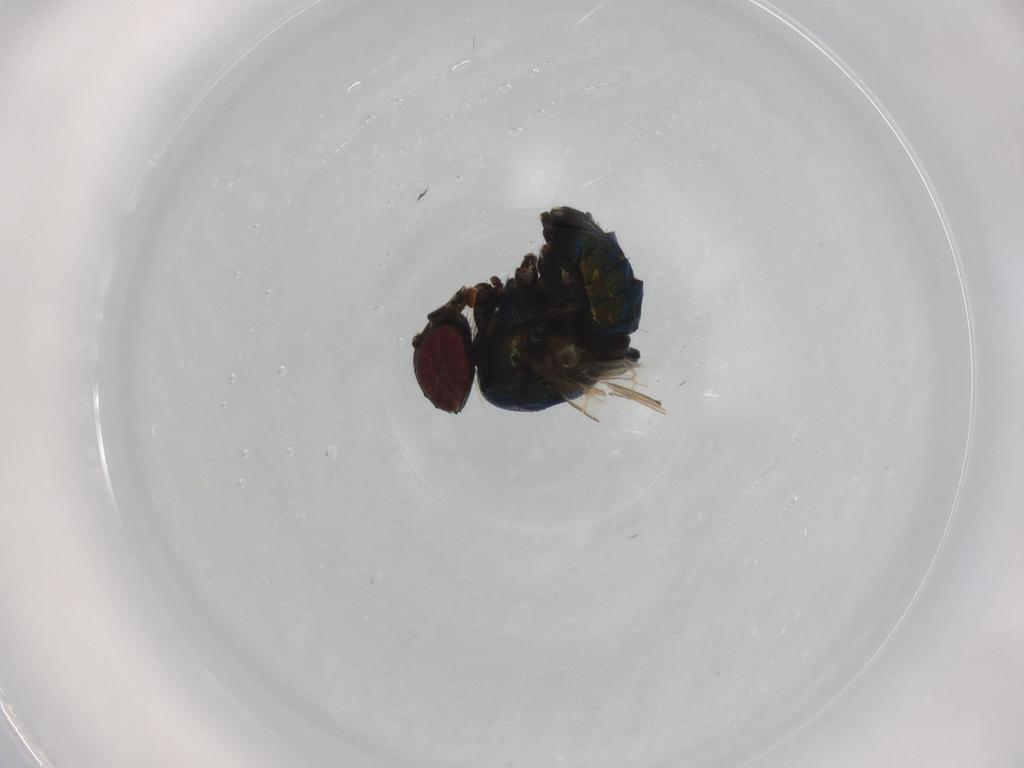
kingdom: Animalia
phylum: Arthropoda
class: Insecta
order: Diptera
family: Agromyzidae
